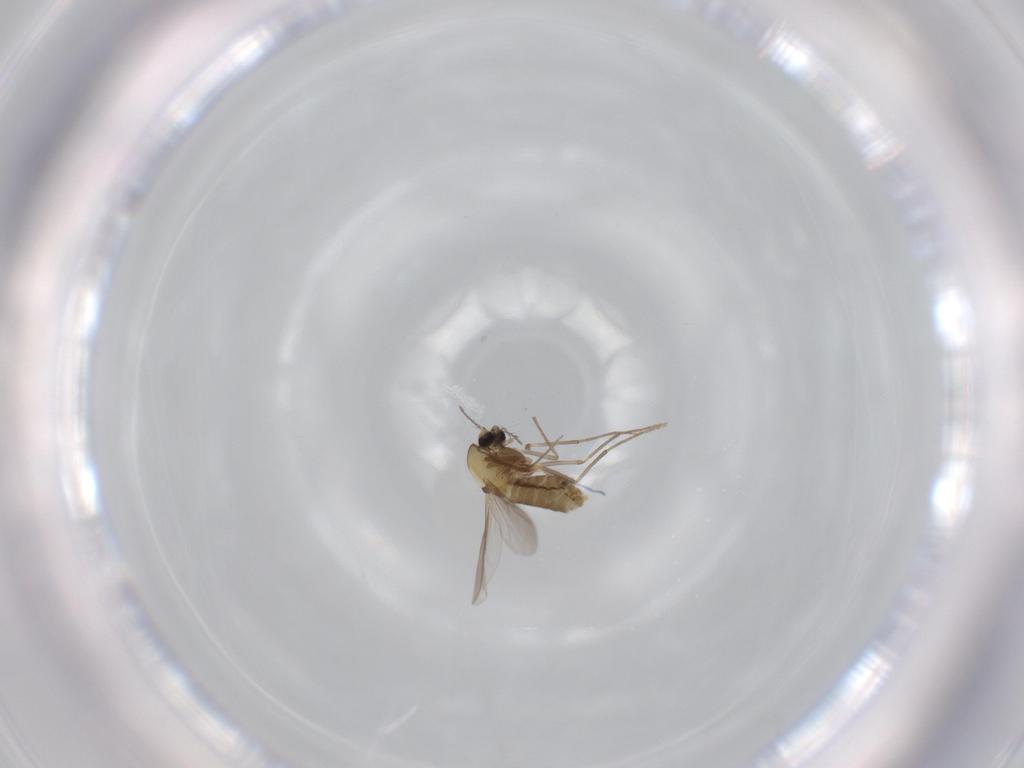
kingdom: Animalia
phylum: Arthropoda
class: Insecta
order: Diptera
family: Chironomidae
